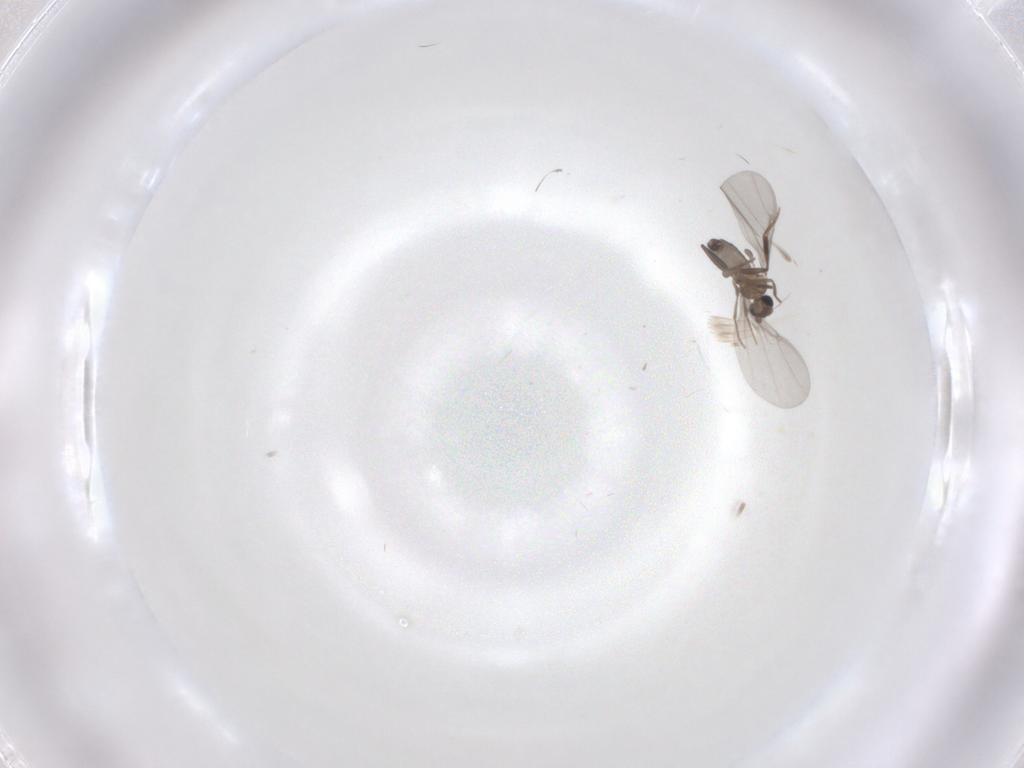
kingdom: Animalia
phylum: Arthropoda
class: Insecta
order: Diptera
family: Phoridae
